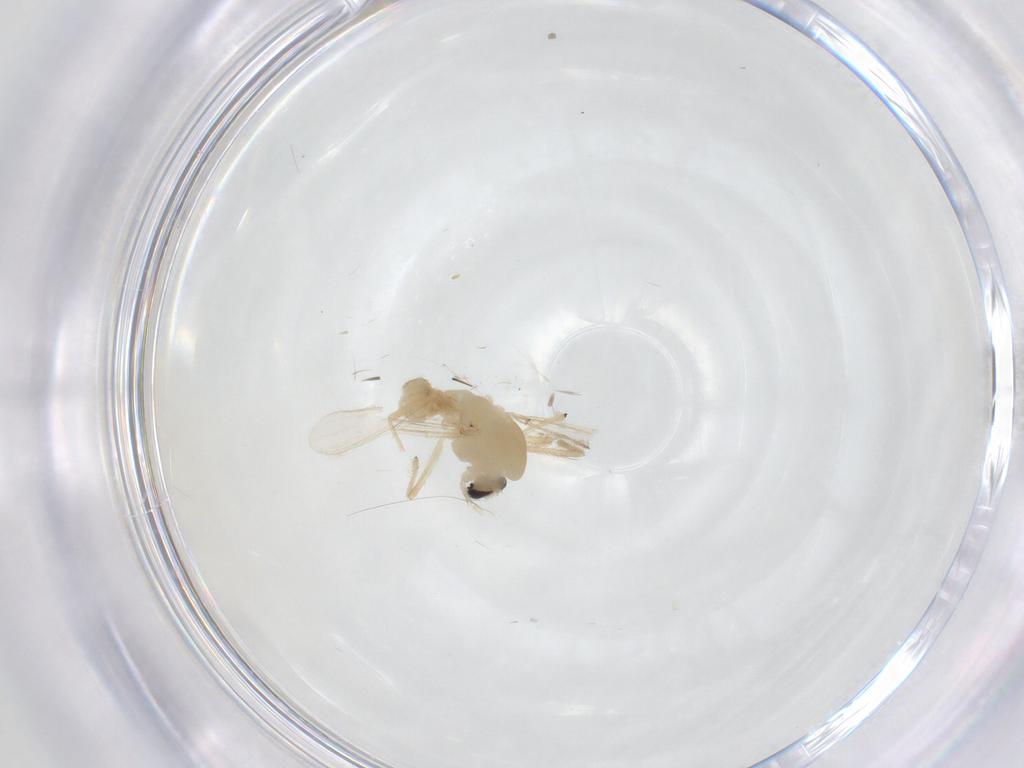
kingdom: Animalia
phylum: Arthropoda
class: Insecta
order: Diptera
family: Chironomidae
